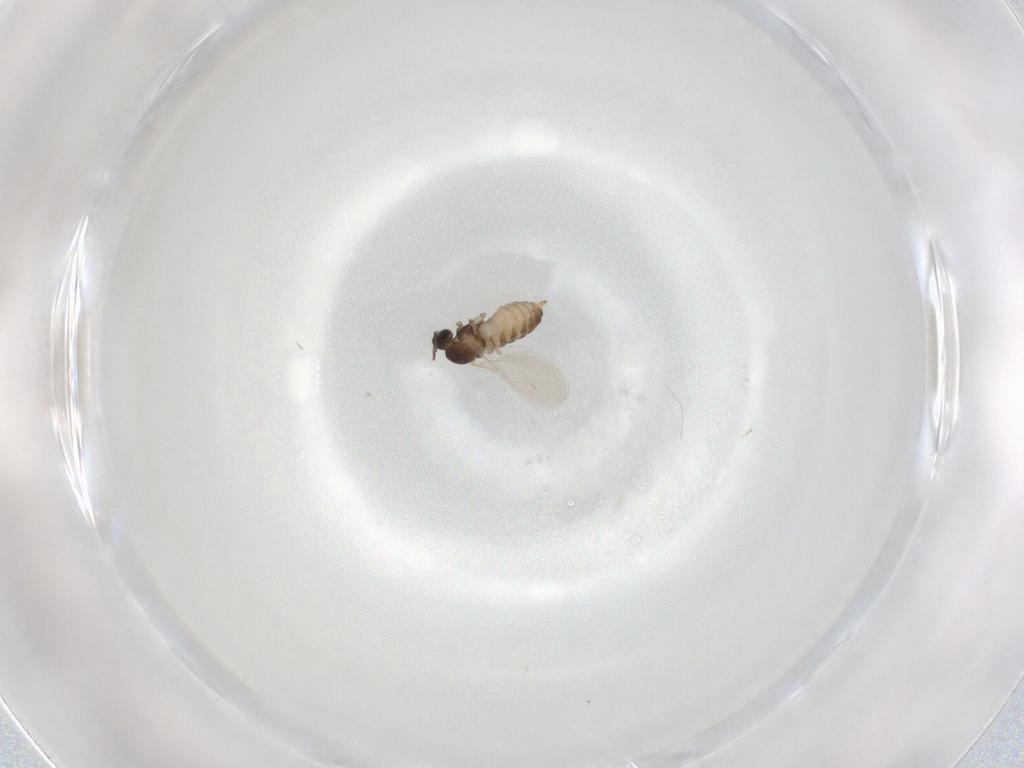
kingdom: Animalia
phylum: Arthropoda
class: Insecta
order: Diptera
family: Cecidomyiidae
